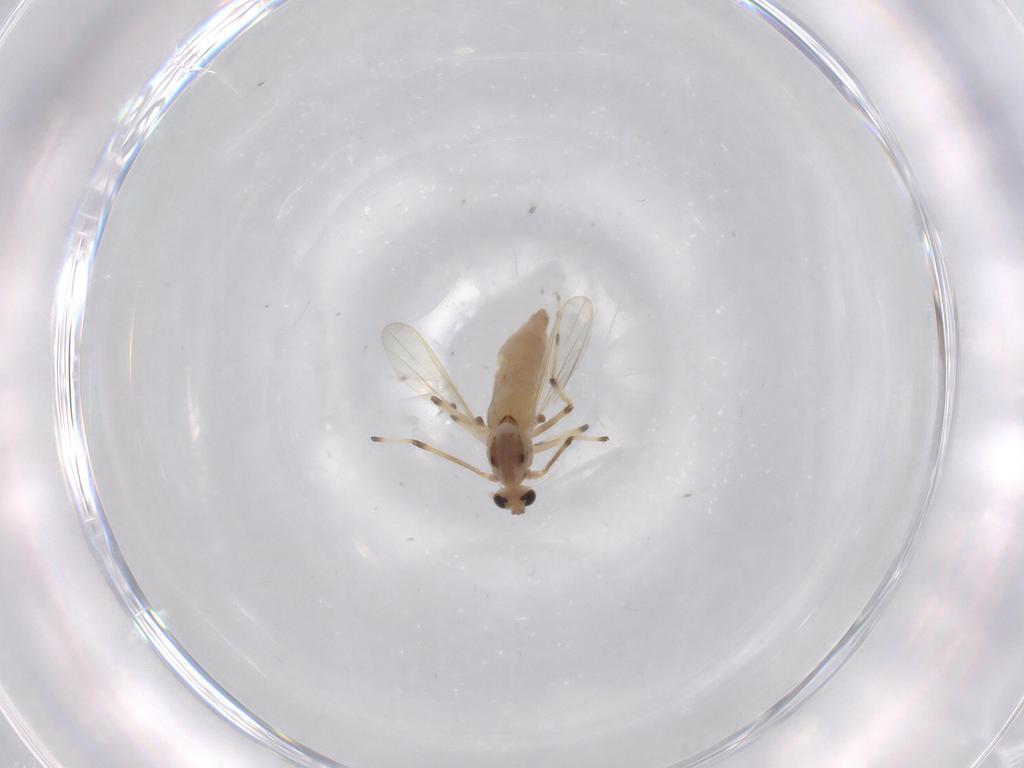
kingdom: Animalia
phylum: Arthropoda
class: Insecta
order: Diptera
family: Chironomidae
